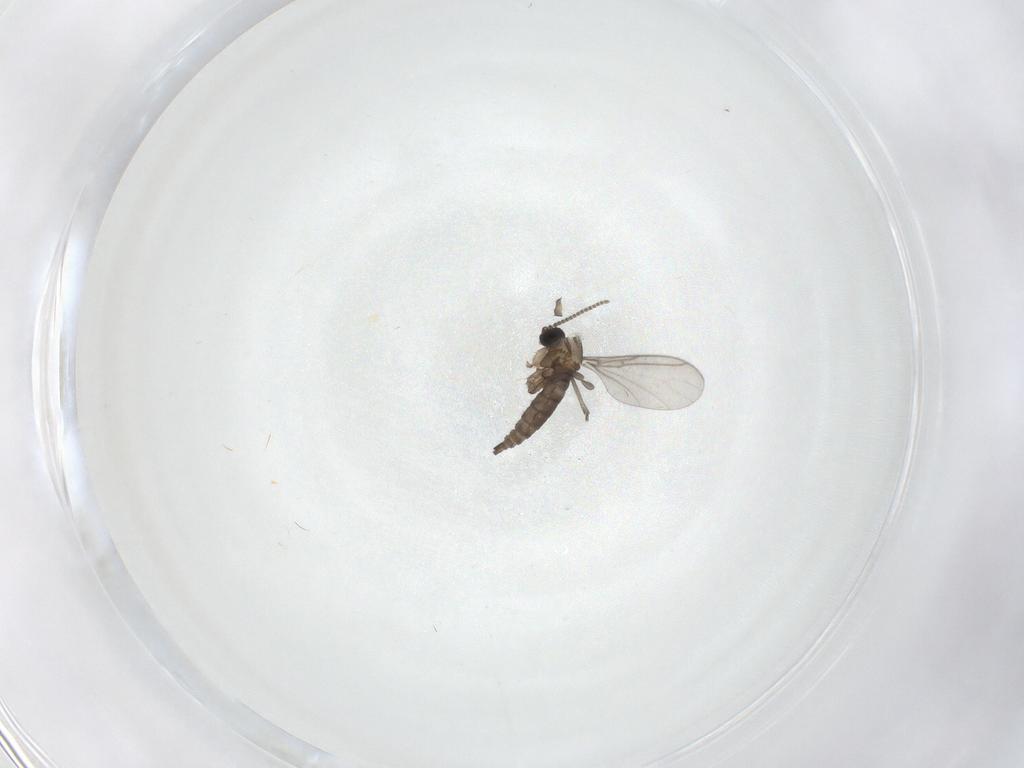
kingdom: Animalia
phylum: Arthropoda
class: Insecta
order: Diptera
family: Sciaridae
